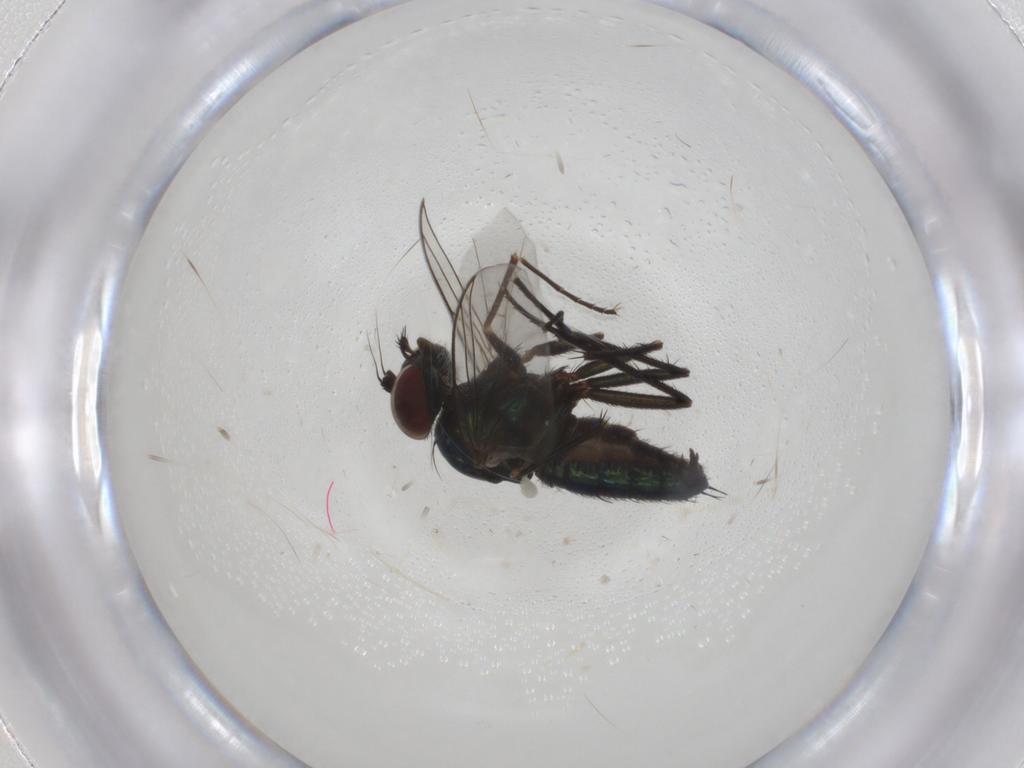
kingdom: Animalia
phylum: Arthropoda
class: Insecta
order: Diptera
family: Dolichopodidae
